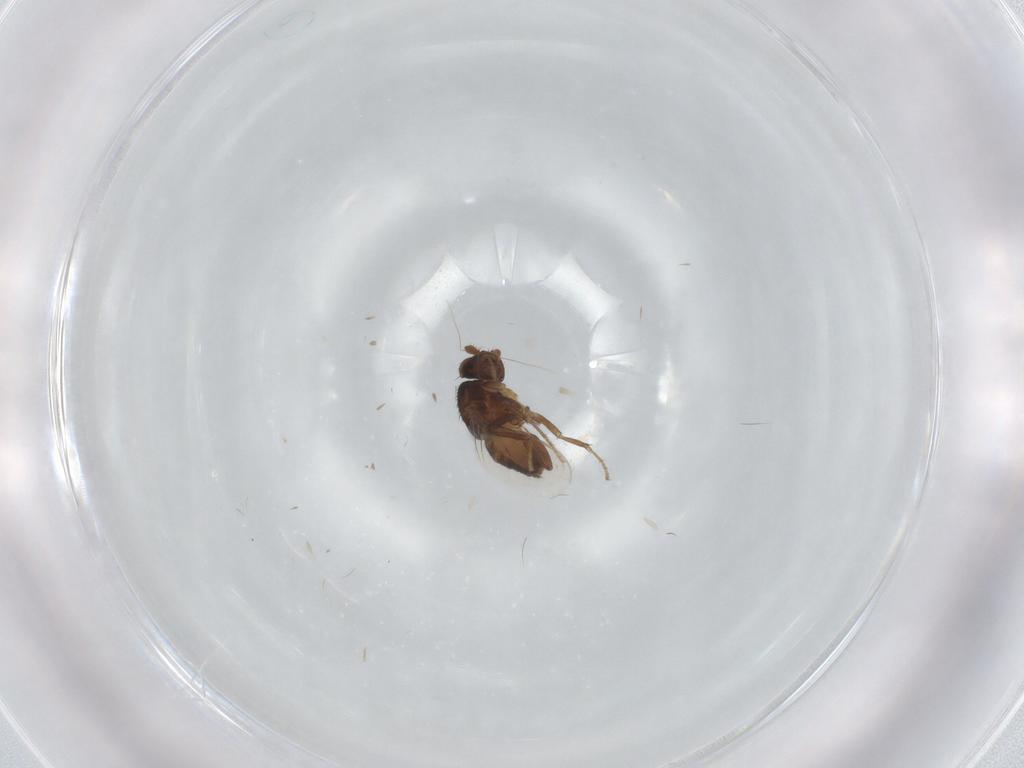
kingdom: Animalia
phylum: Arthropoda
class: Insecta
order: Diptera
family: Sphaeroceridae
